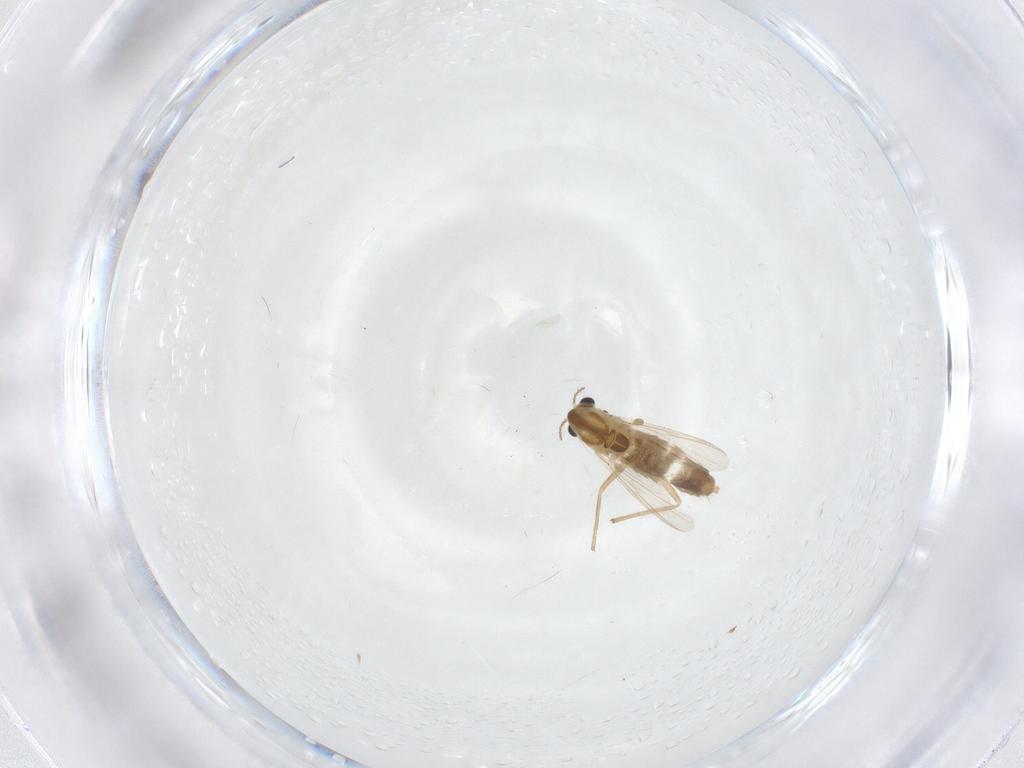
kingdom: Animalia
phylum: Arthropoda
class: Insecta
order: Diptera
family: Chironomidae
